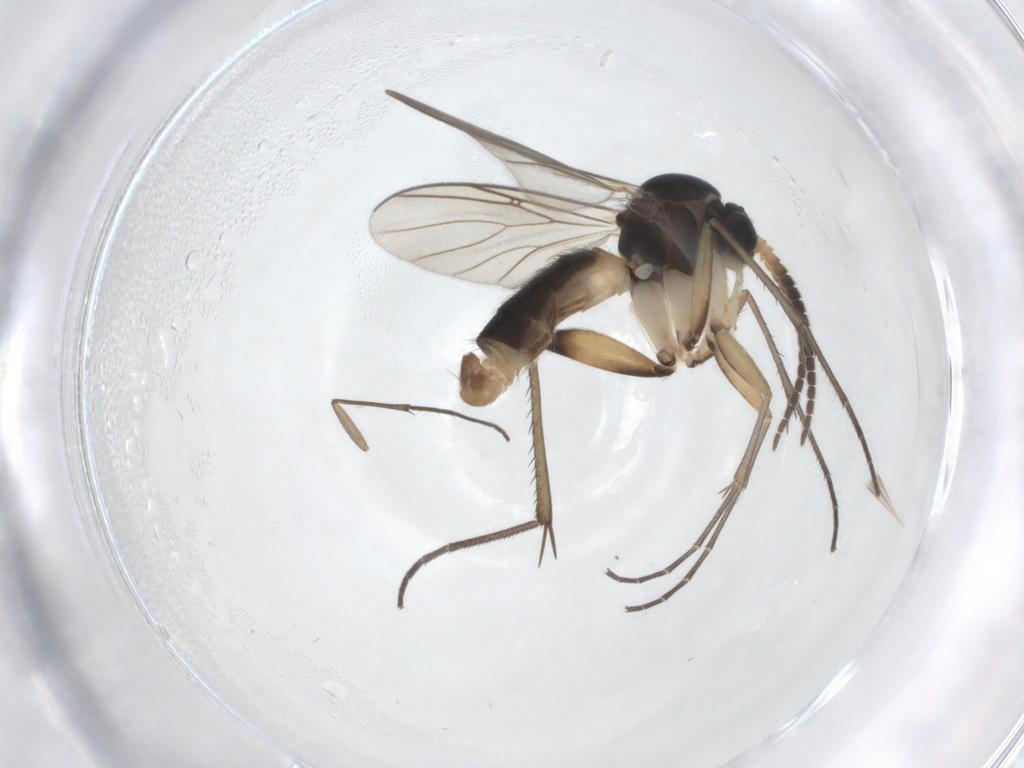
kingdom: Animalia
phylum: Arthropoda
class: Insecta
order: Diptera
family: Mycetophilidae
